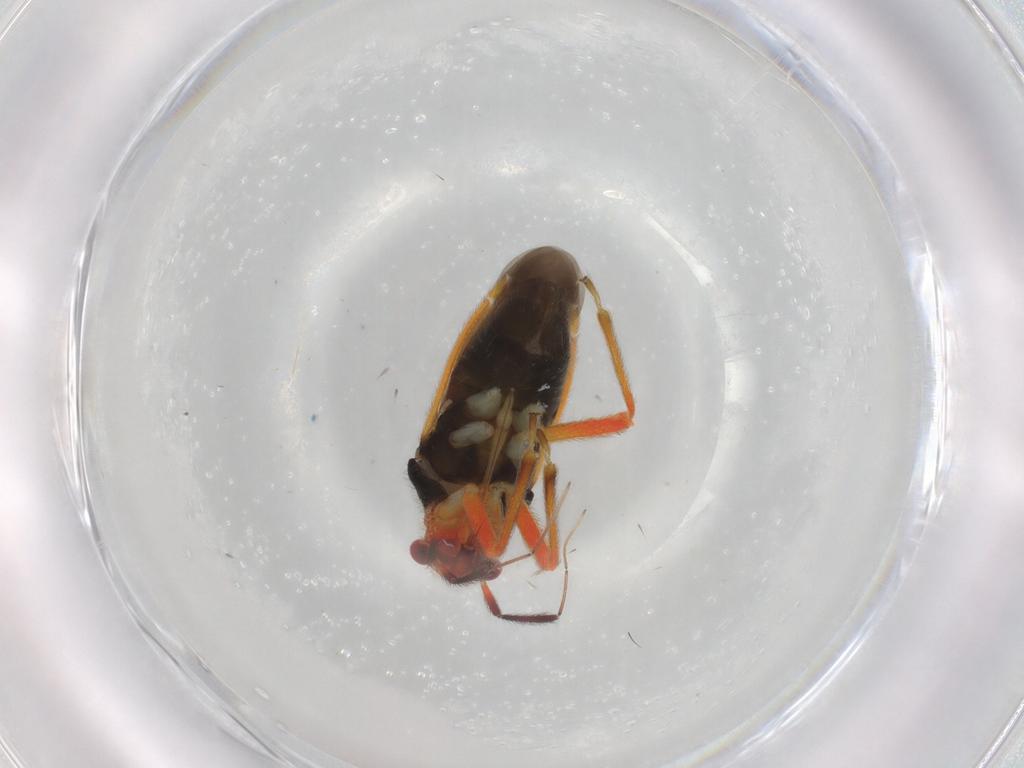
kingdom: Animalia
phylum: Arthropoda
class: Insecta
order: Hemiptera
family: Miridae
